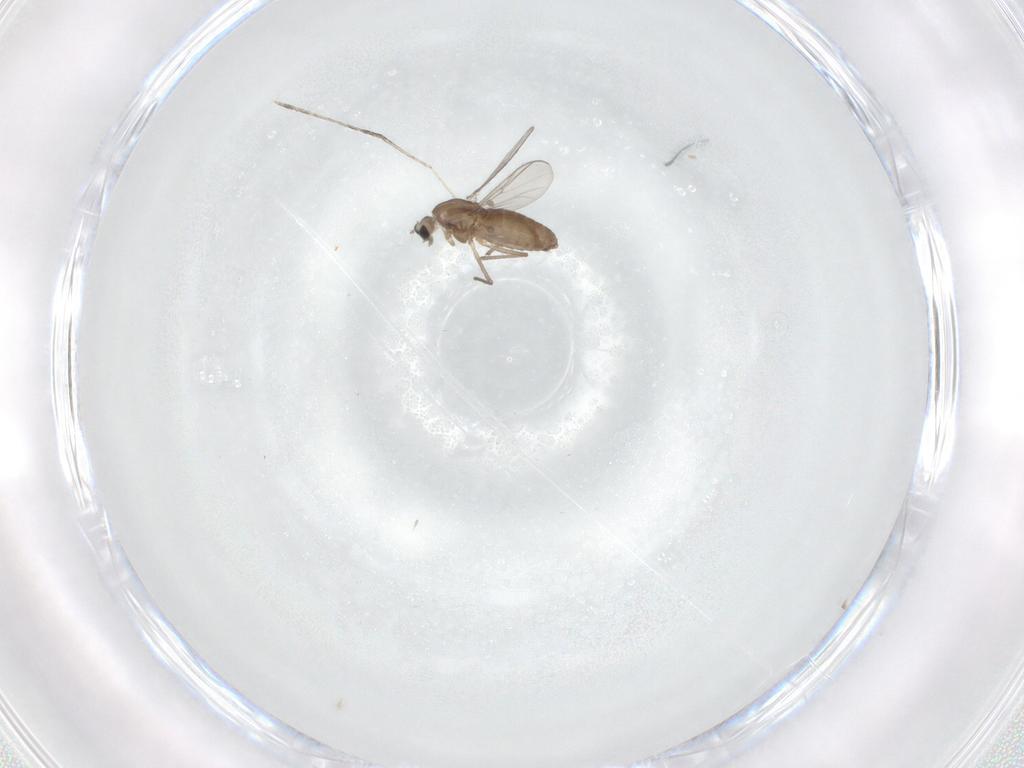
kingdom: Animalia
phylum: Arthropoda
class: Insecta
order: Diptera
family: Chironomidae
